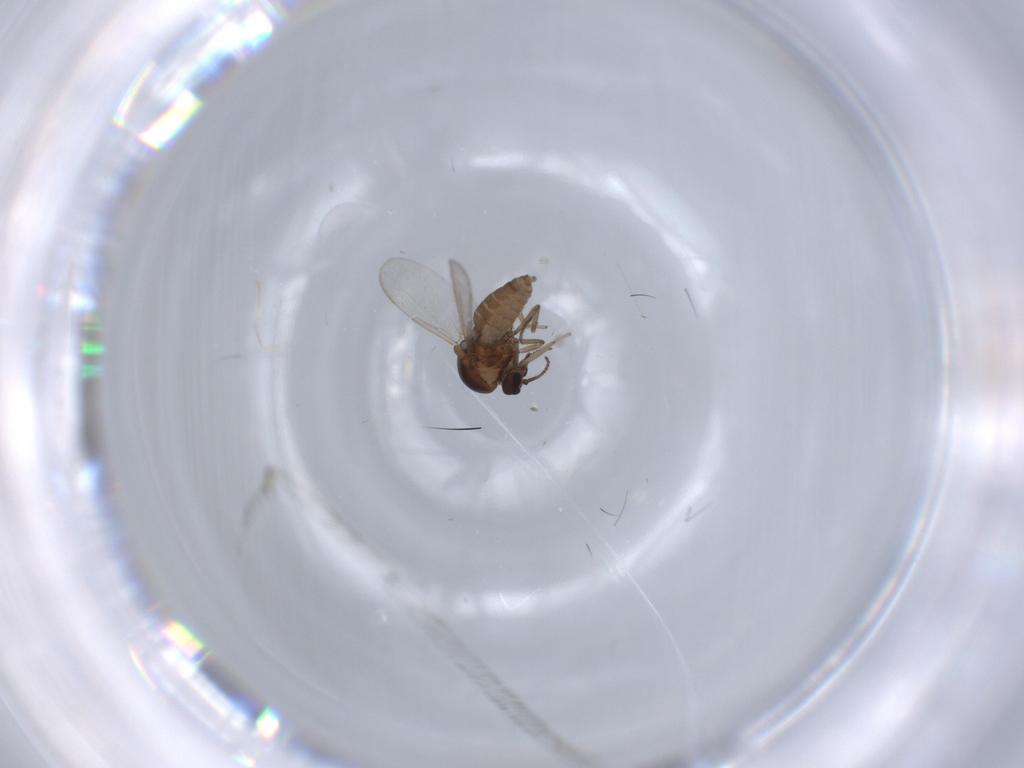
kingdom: Animalia
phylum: Arthropoda
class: Insecta
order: Diptera
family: Ceratopogonidae
